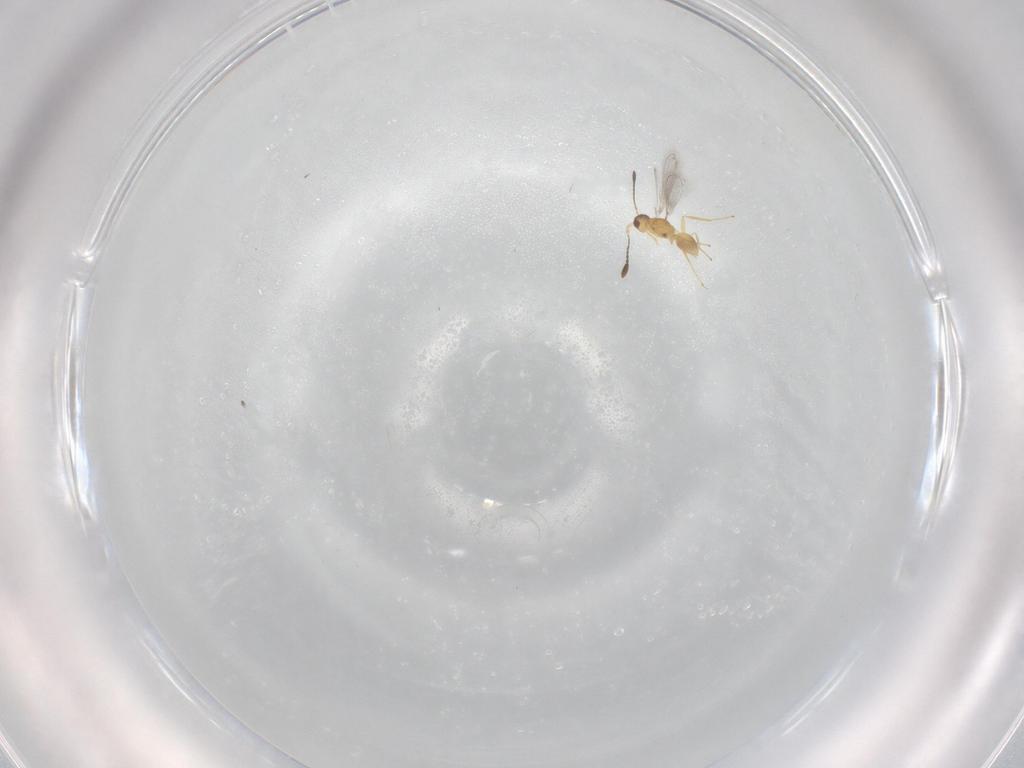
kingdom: Animalia
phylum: Arthropoda
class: Insecta
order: Hymenoptera
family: Mymaridae
